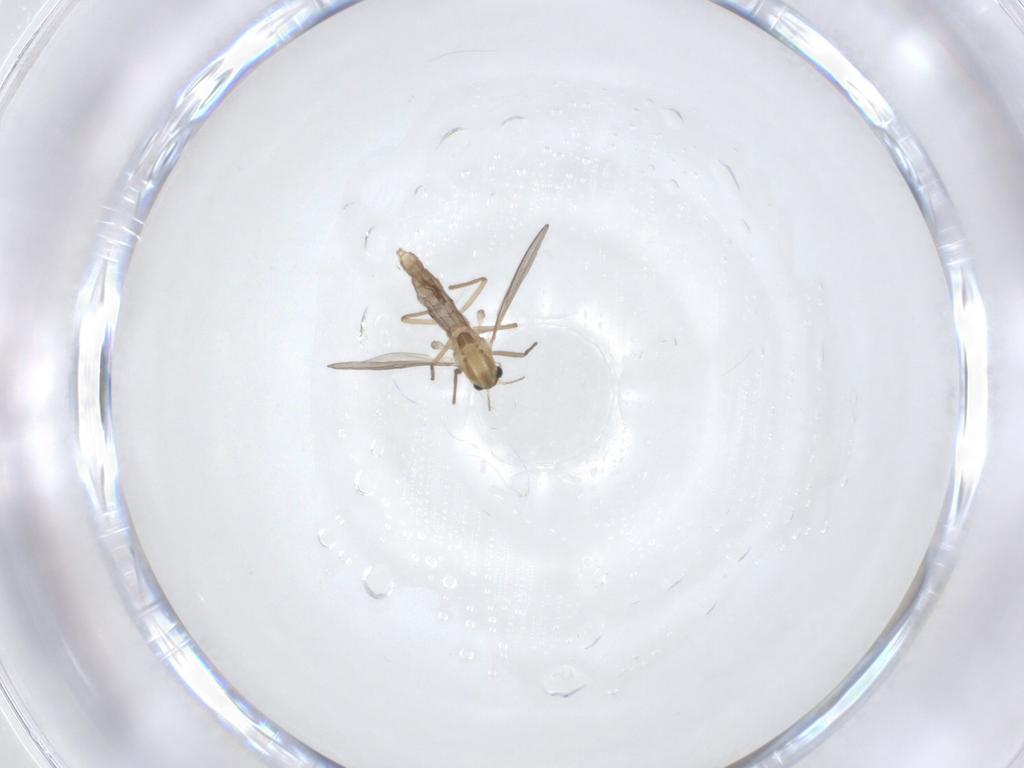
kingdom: Animalia
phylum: Arthropoda
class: Insecta
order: Diptera
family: Chironomidae
